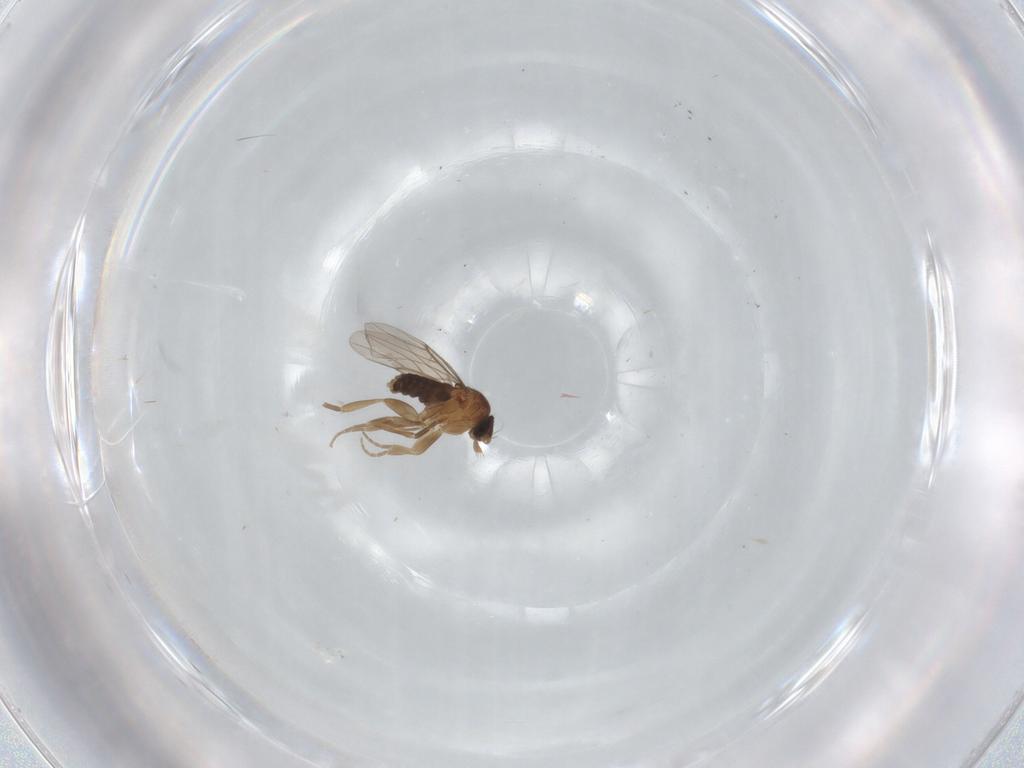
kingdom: Animalia
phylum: Arthropoda
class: Insecta
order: Diptera
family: Phoridae
